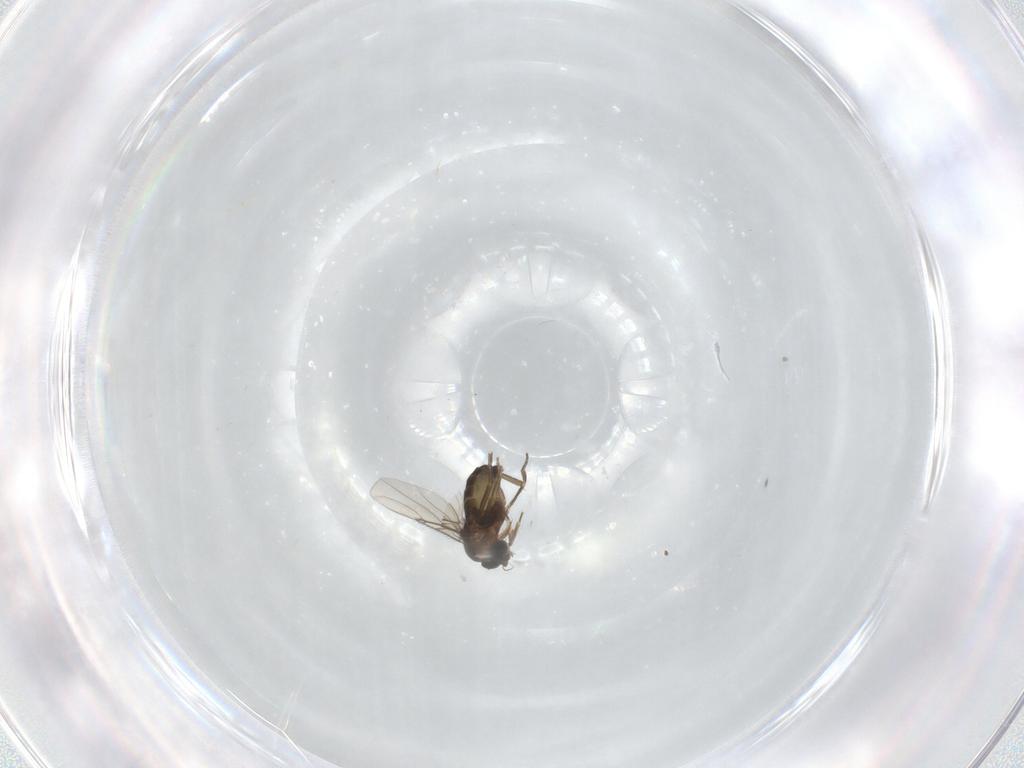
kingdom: Animalia
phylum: Arthropoda
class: Insecta
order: Diptera
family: Phoridae
